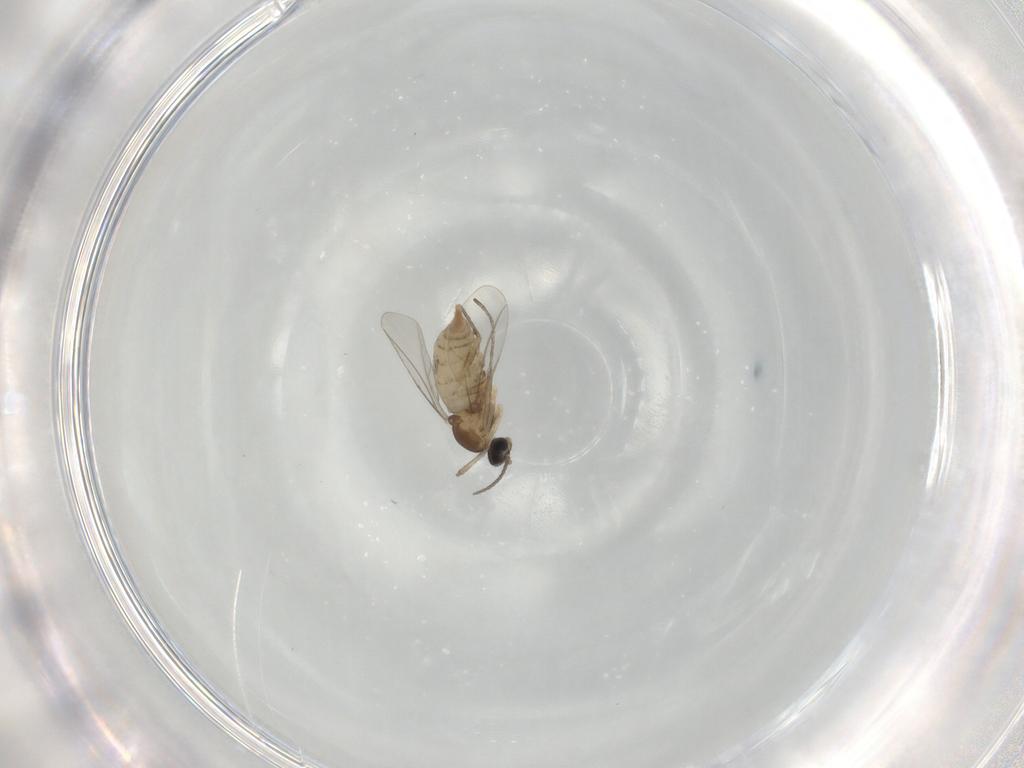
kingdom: Animalia
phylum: Arthropoda
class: Insecta
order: Diptera
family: Cecidomyiidae
